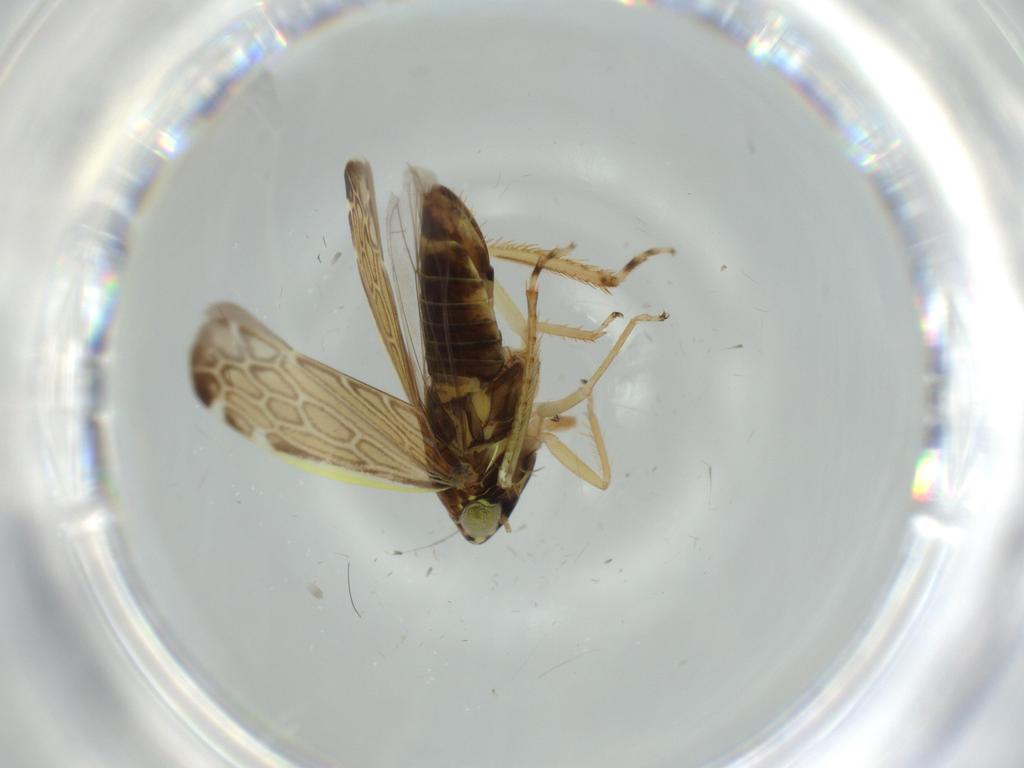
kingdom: Animalia
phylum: Arthropoda
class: Insecta
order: Hemiptera
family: Cicadellidae
